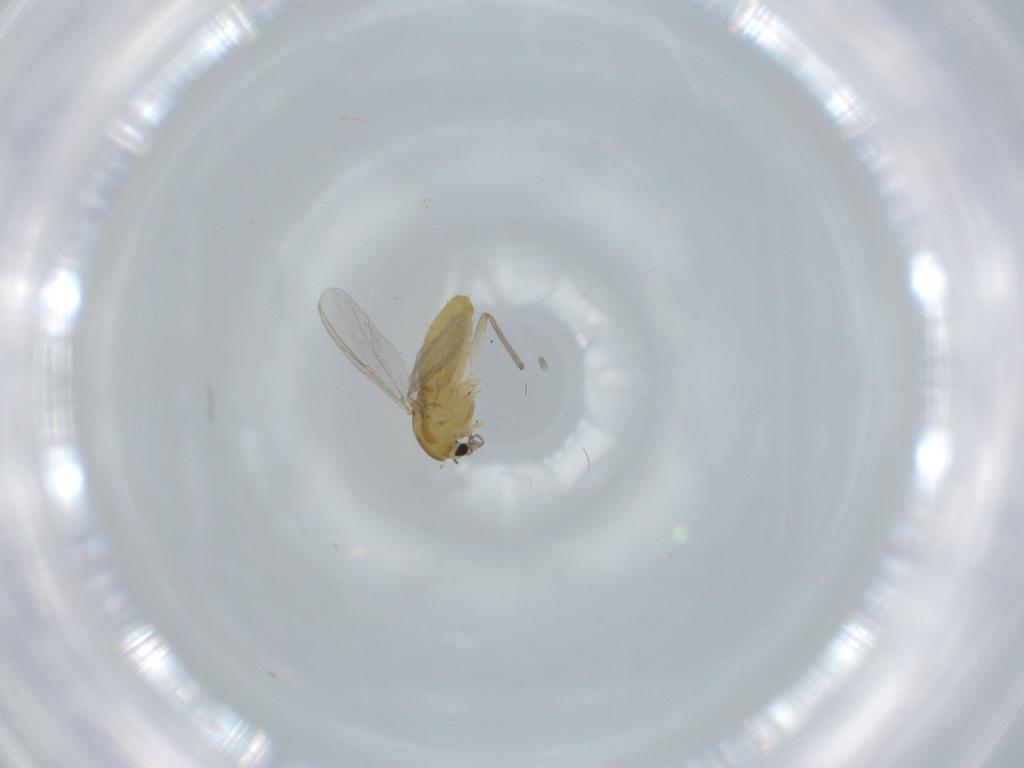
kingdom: Animalia
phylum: Arthropoda
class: Insecta
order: Diptera
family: Chironomidae
